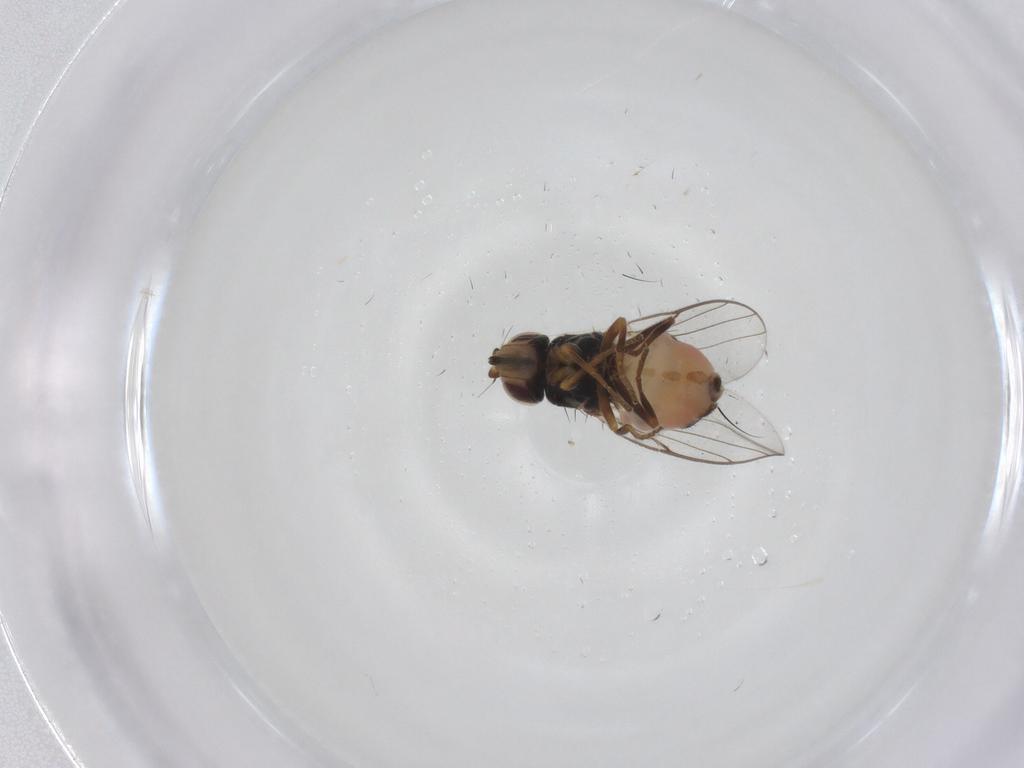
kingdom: Animalia
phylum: Arthropoda
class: Insecta
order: Diptera
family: Chloropidae
